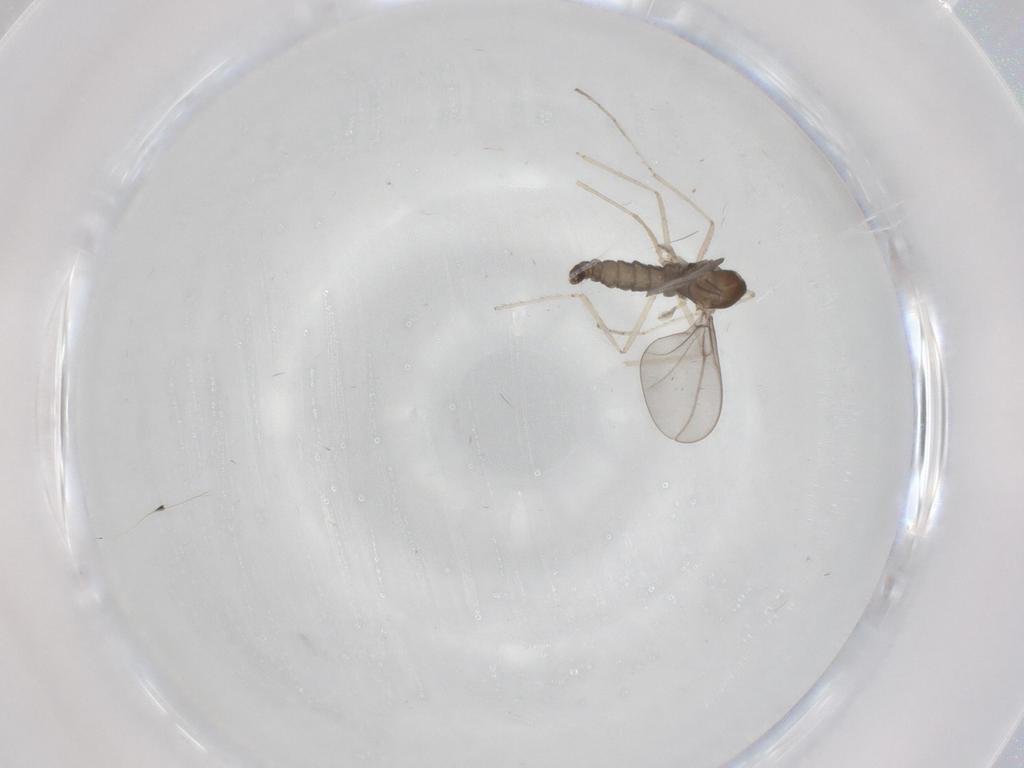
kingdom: Animalia
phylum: Arthropoda
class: Insecta
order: Diptera
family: Cecidomyiidae
